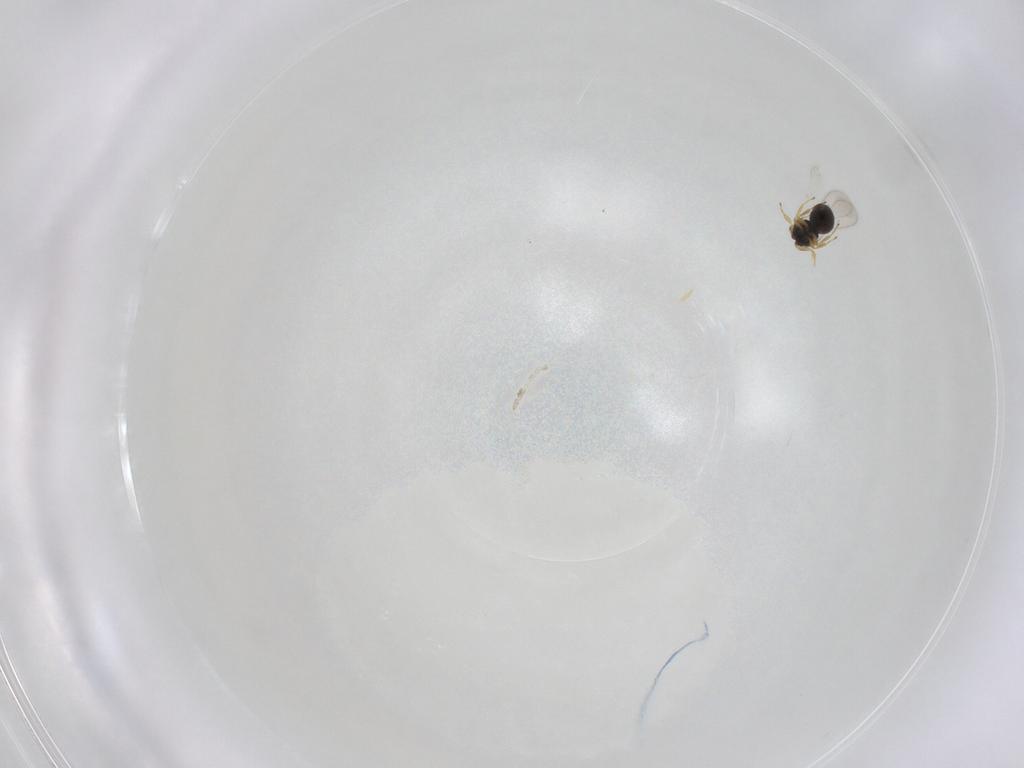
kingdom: Animalia
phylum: Arthropoda
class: Insecta
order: Hymenoptera
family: Scelionidae
